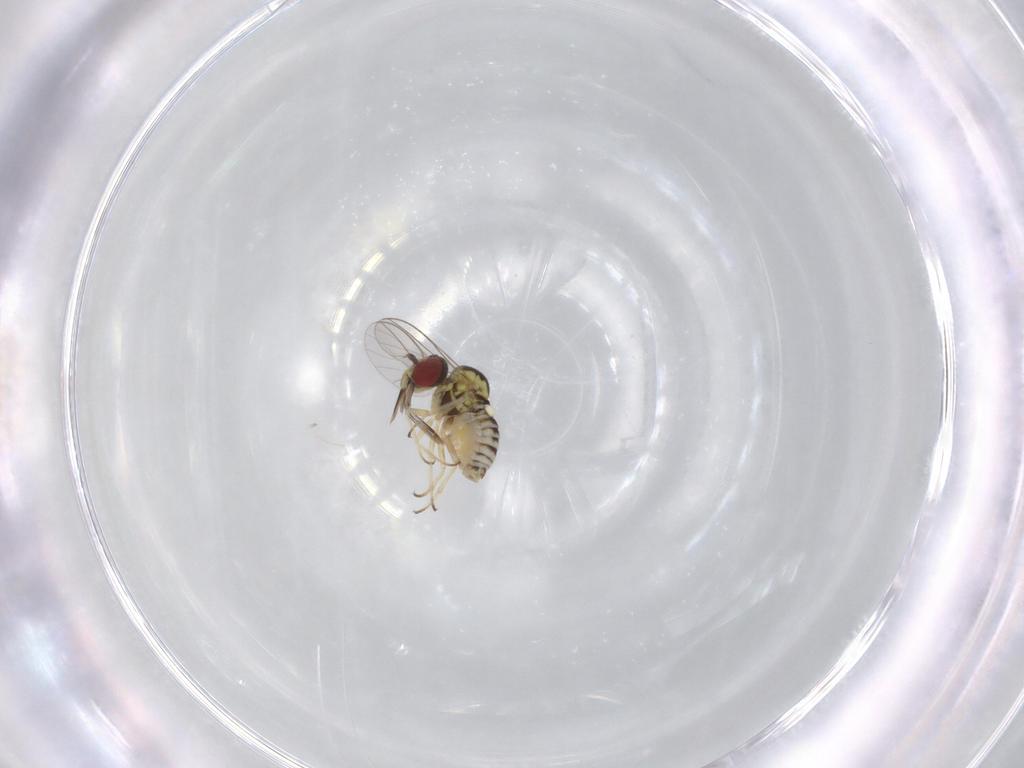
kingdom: Animalia
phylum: Arthropoda
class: Insecta
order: Diptera
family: Bombyliidae
